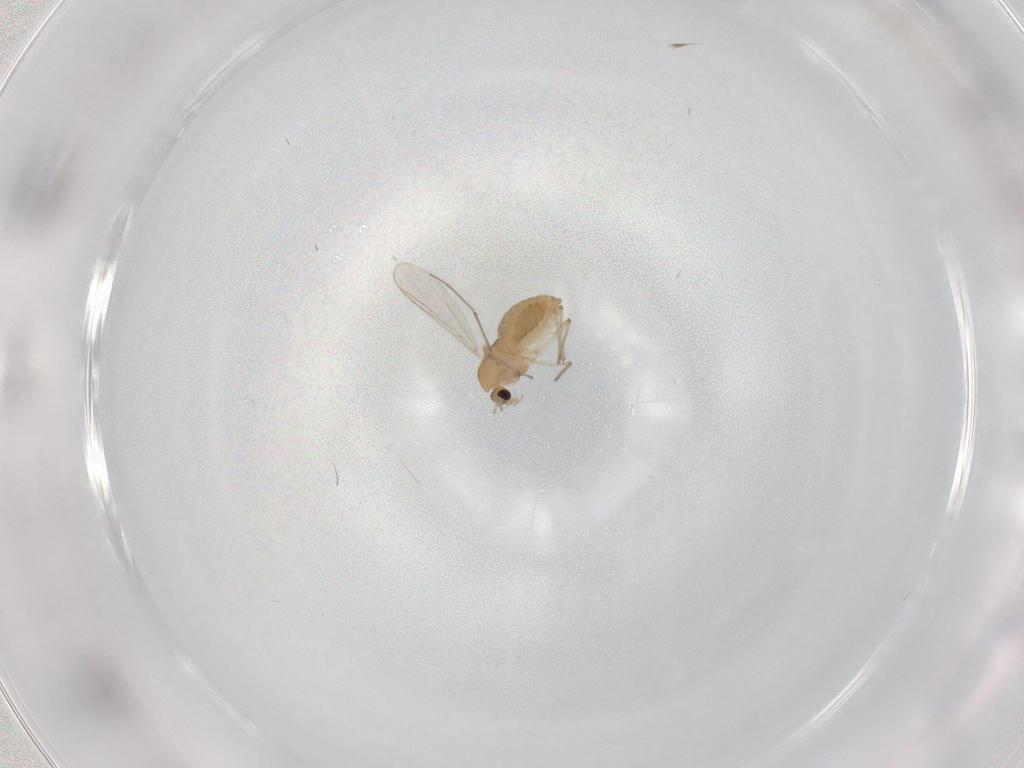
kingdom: Animalia
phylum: Arthropoda
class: Insecta
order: Diptera
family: Chironomidae
